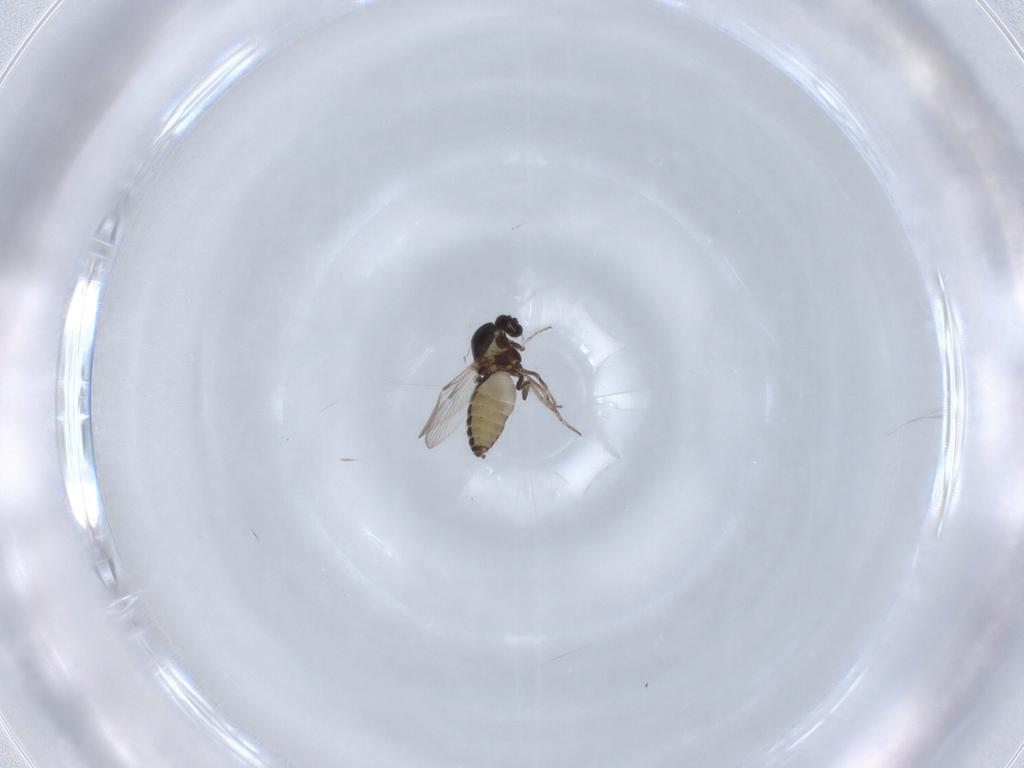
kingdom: Animalia
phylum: Arthropoda
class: Insecta
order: Diptera
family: Ceratopogonidae
